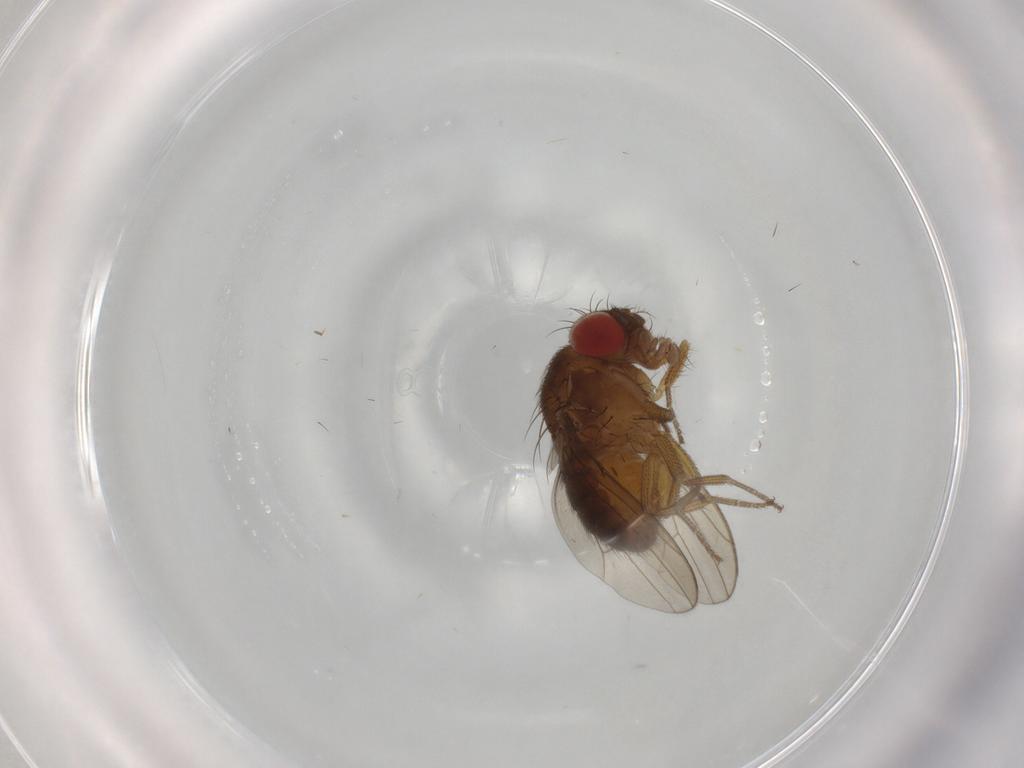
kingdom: Animalia
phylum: Arthropoda
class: Insecta
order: Diptera
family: Drosophilidae
